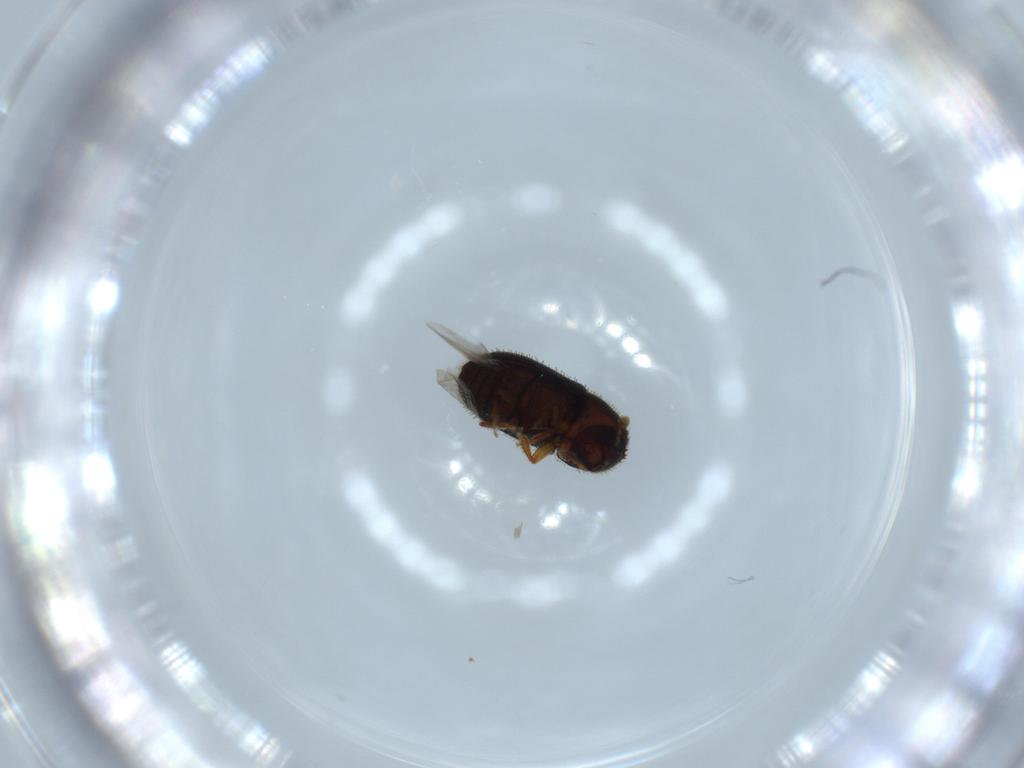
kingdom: Animalia
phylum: Arthropoda
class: Insecta
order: Coleoptera
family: Curculionidae
